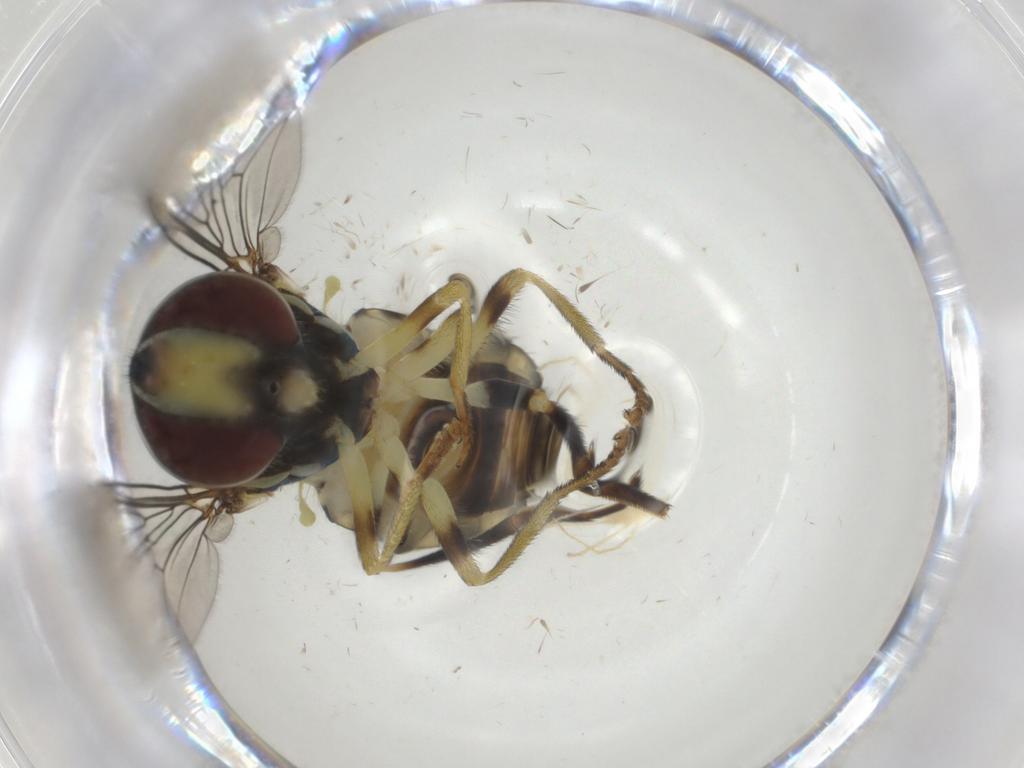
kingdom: Animalia
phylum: Arthropoda
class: Insecta
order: Diptera
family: Syrphidae
